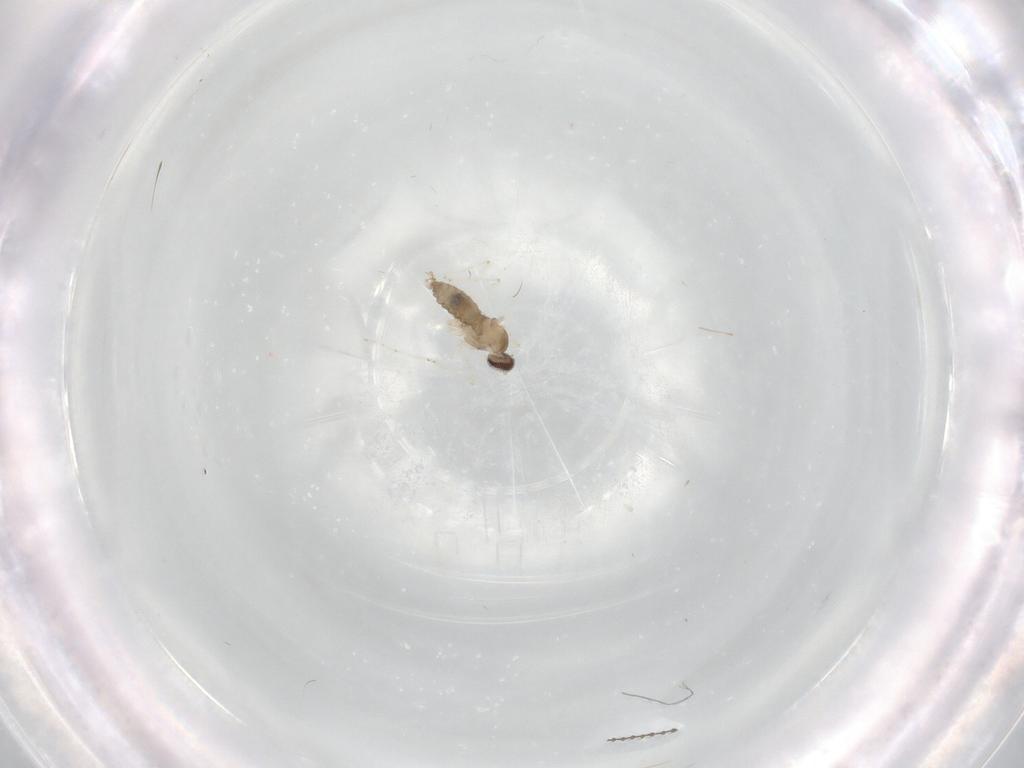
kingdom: Animalia
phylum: Arthropoda
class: Insecta
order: Diptera
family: Cecidomyiidae
